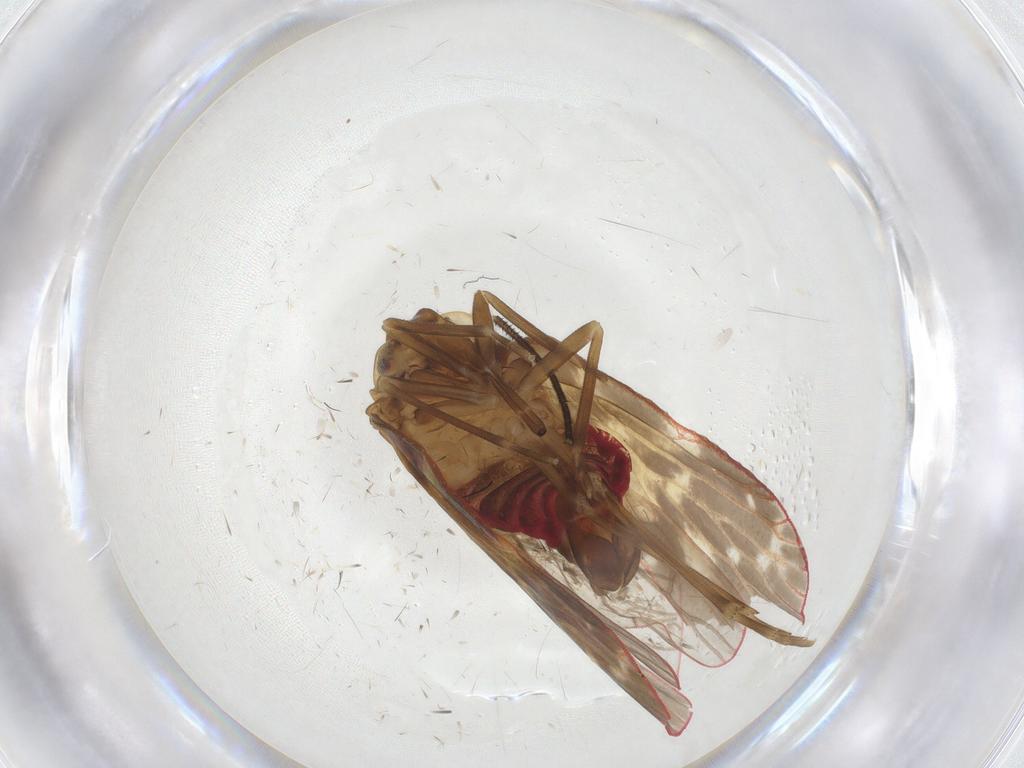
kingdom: Animalia
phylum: Arthropoda
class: Insecta
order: Hemiptera
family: Achilidae
